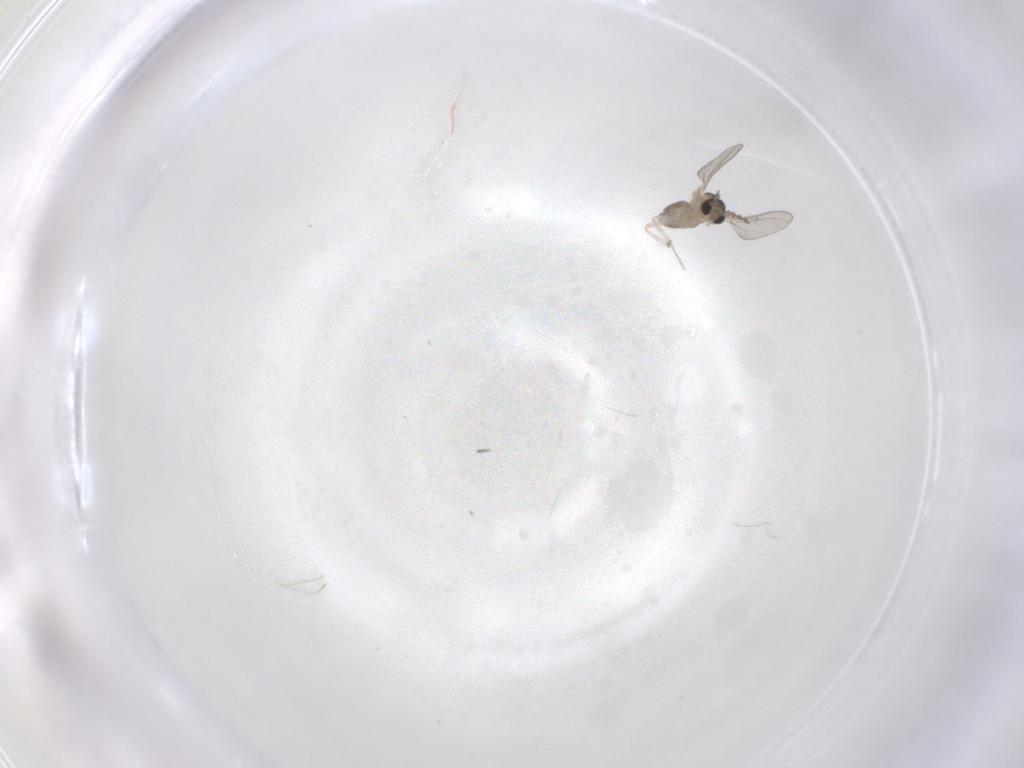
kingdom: Animalia
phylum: Arthropoda
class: Insecta
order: Diptera
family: Cecidomyiidae
